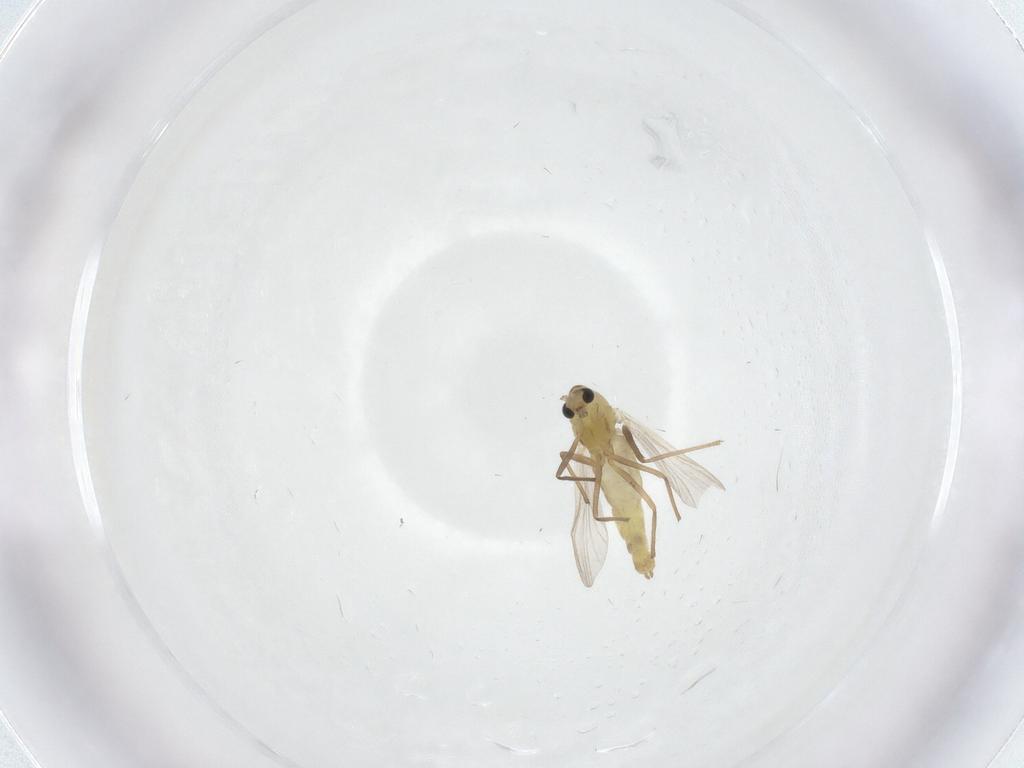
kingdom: Animalia
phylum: Arthropoda
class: Insecta
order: Diptera
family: Chironomidae
